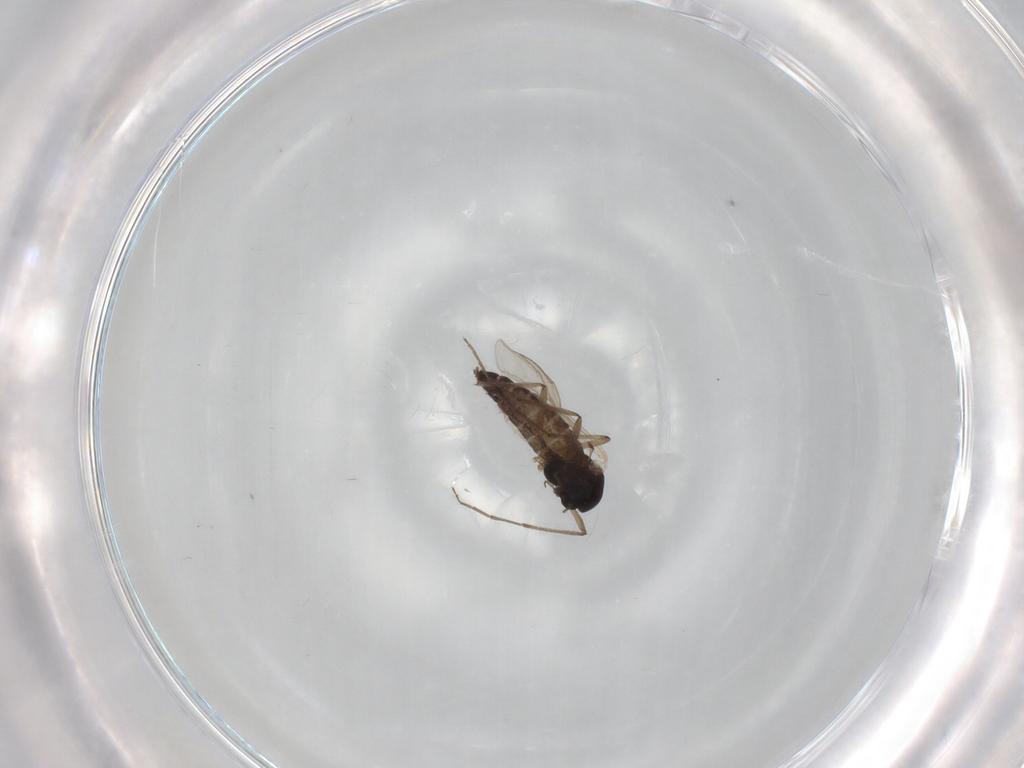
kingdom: Animalia
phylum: Arthropoda
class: Insecta
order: Diptera
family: Chironomidae
